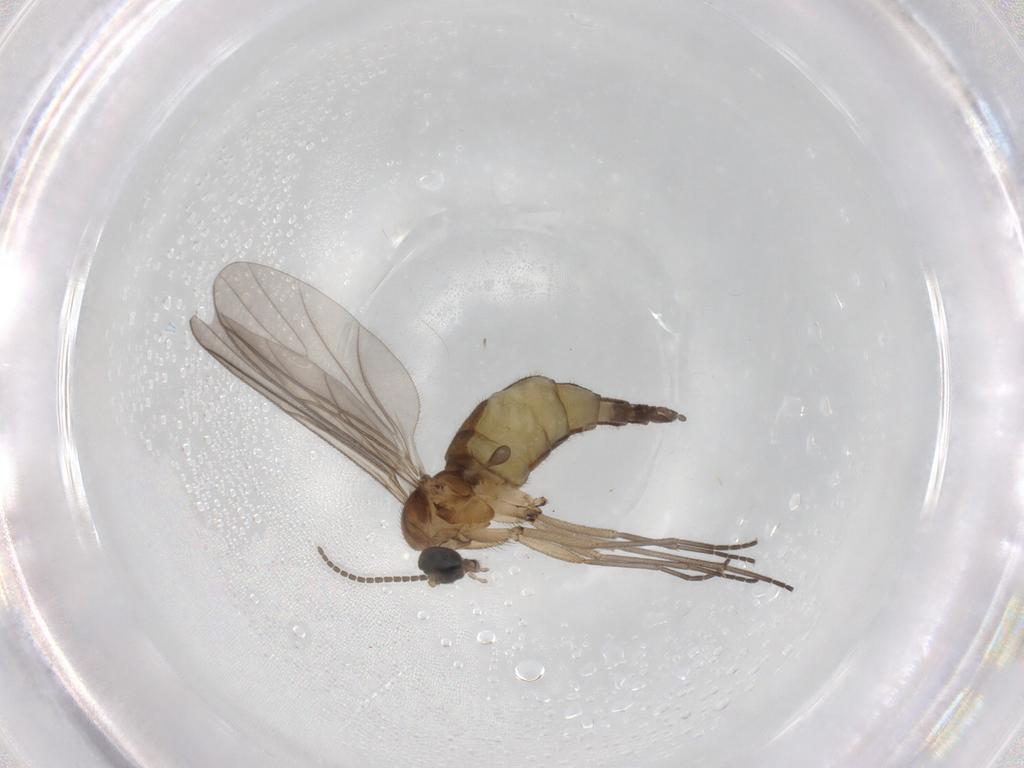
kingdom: Animalia
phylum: Arthropoda
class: Insecta
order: Diptera
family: Sciaridae
